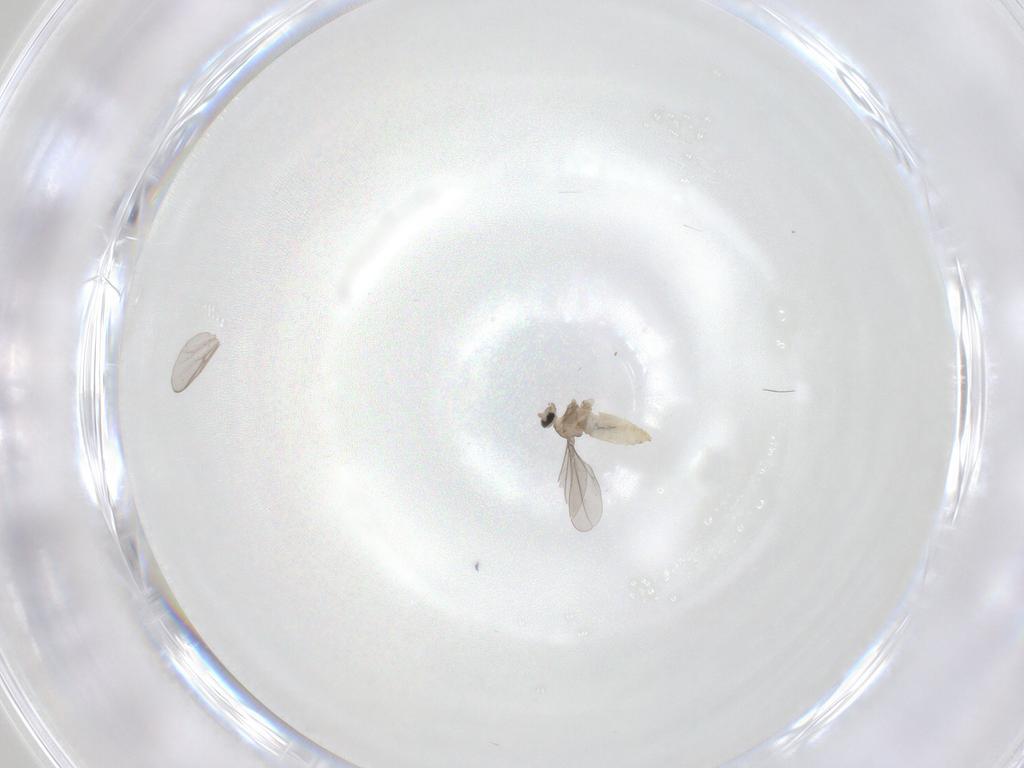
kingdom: Animalia
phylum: Arthropoda
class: Insecta
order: Diptera
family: Cecidomyiidae
